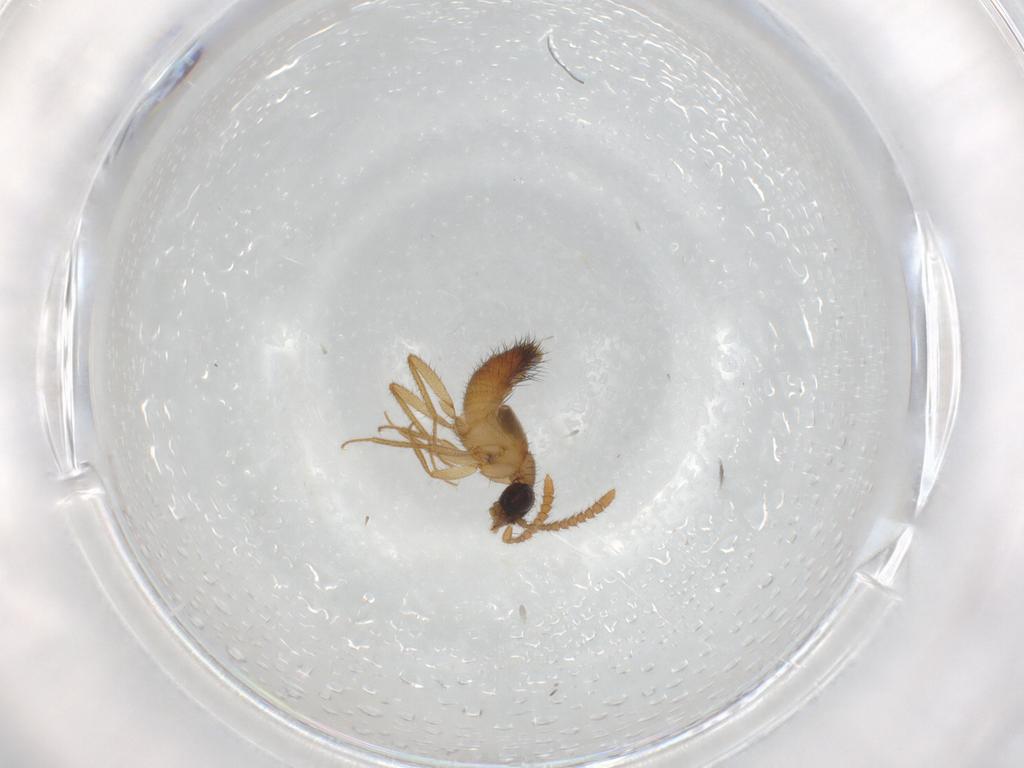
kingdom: Animalia
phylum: Arthropoda
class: Insecta
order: Coleoptera
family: Staphylinidae
